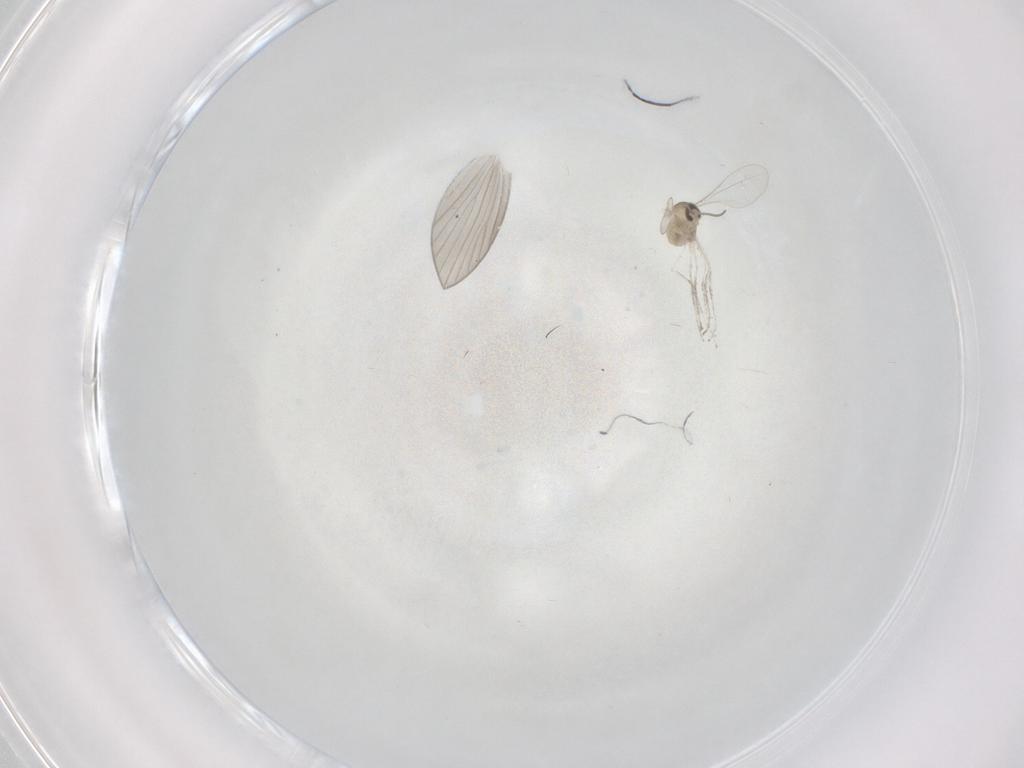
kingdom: Animalia
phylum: Arthropoda
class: Insecta
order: Diptera
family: Cecidomyiidae
